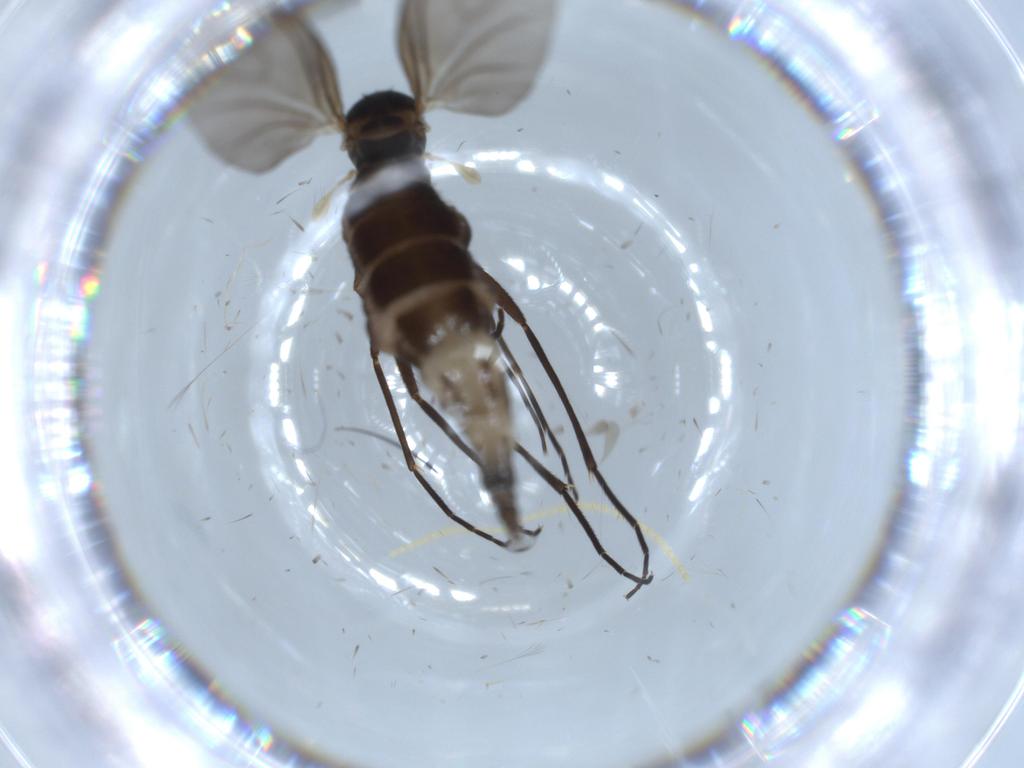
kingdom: Animalia
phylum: Arthropoda
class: Insecta
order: Diptera
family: Sciaridae
